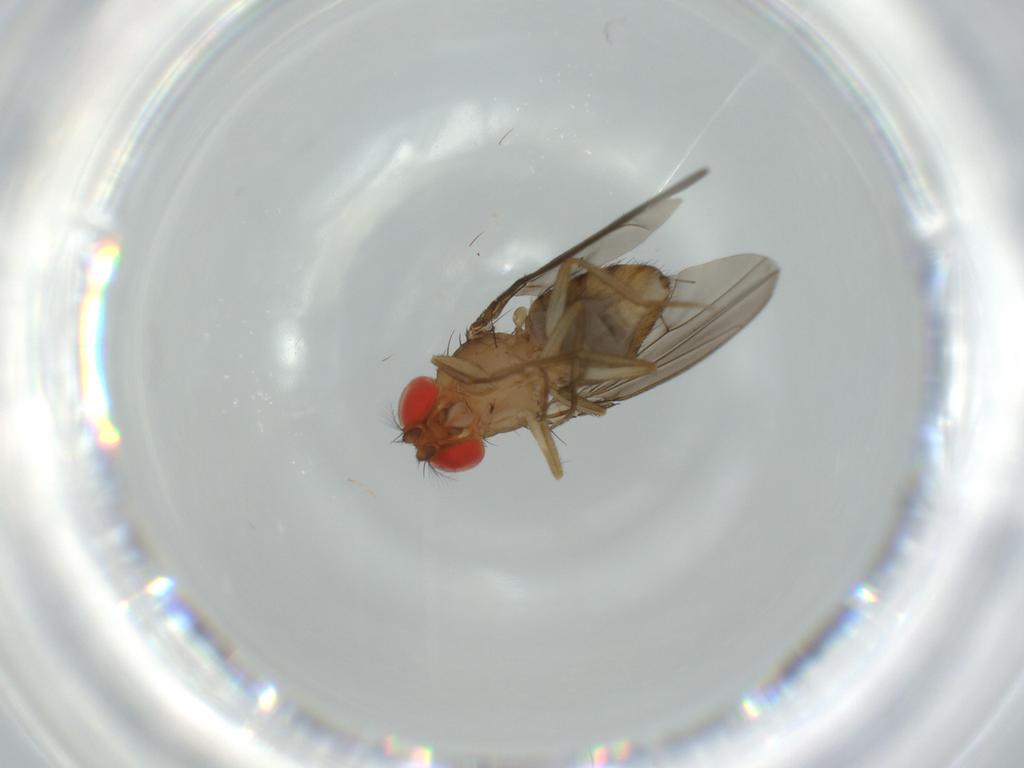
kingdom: Animalia
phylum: Arthropoda
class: Insecta
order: Diptera
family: Drosophilidae
